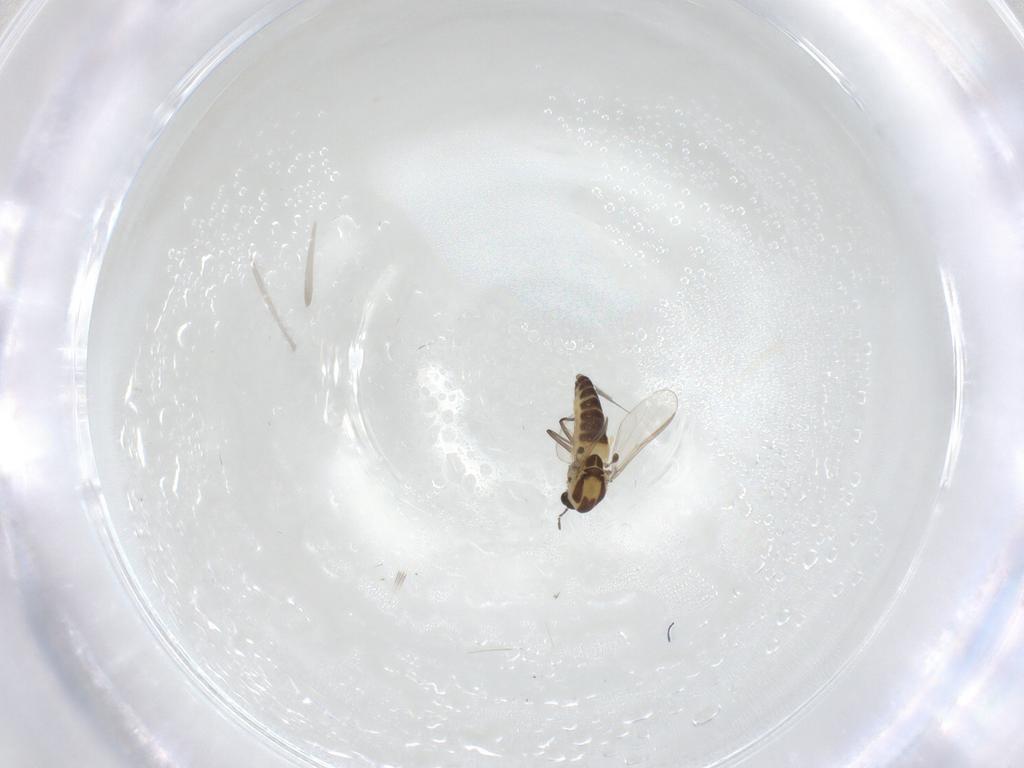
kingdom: Animalia
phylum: Arthropoda
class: Insecta
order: Diptera
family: Chironomidae
